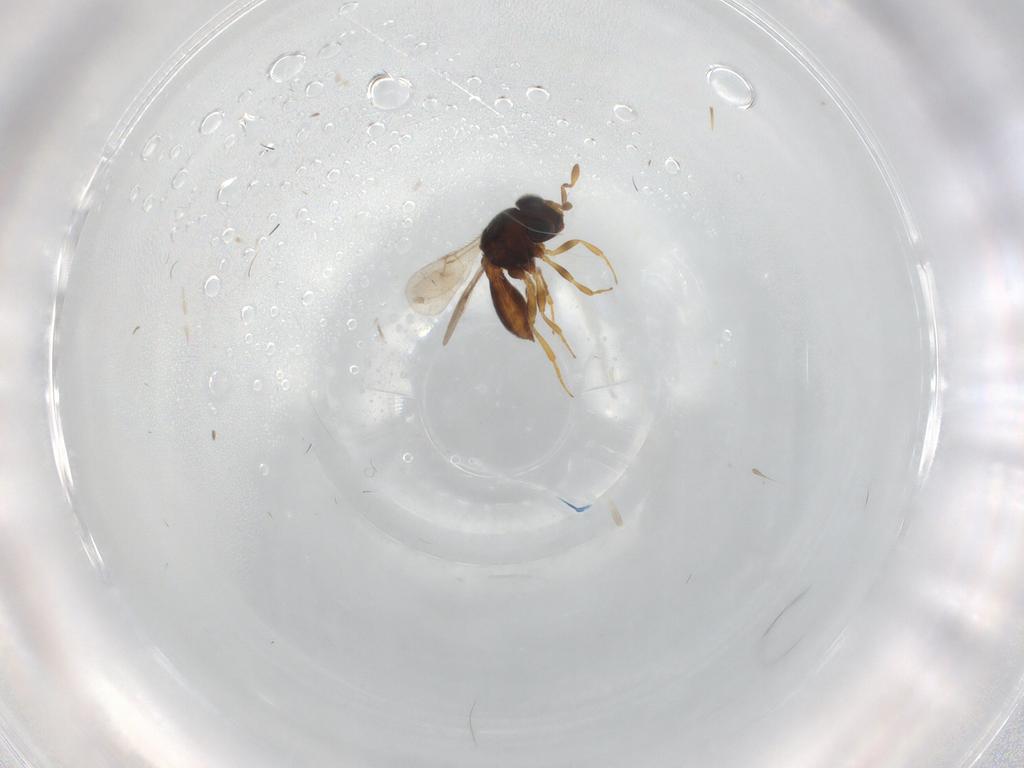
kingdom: Animalia
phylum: Arthropoda
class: Insecta
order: Hymenoptera
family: Scelionidae
